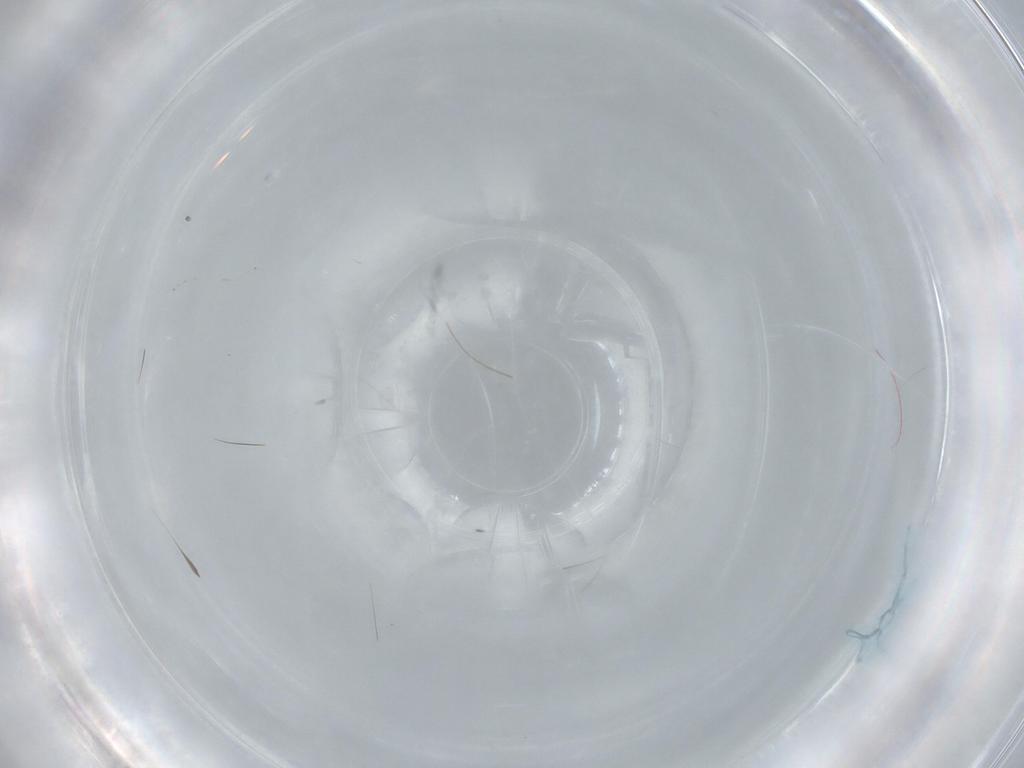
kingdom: Animalia
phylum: Arthropoda
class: Insecta
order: Diptera
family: Cecidomyiidae
